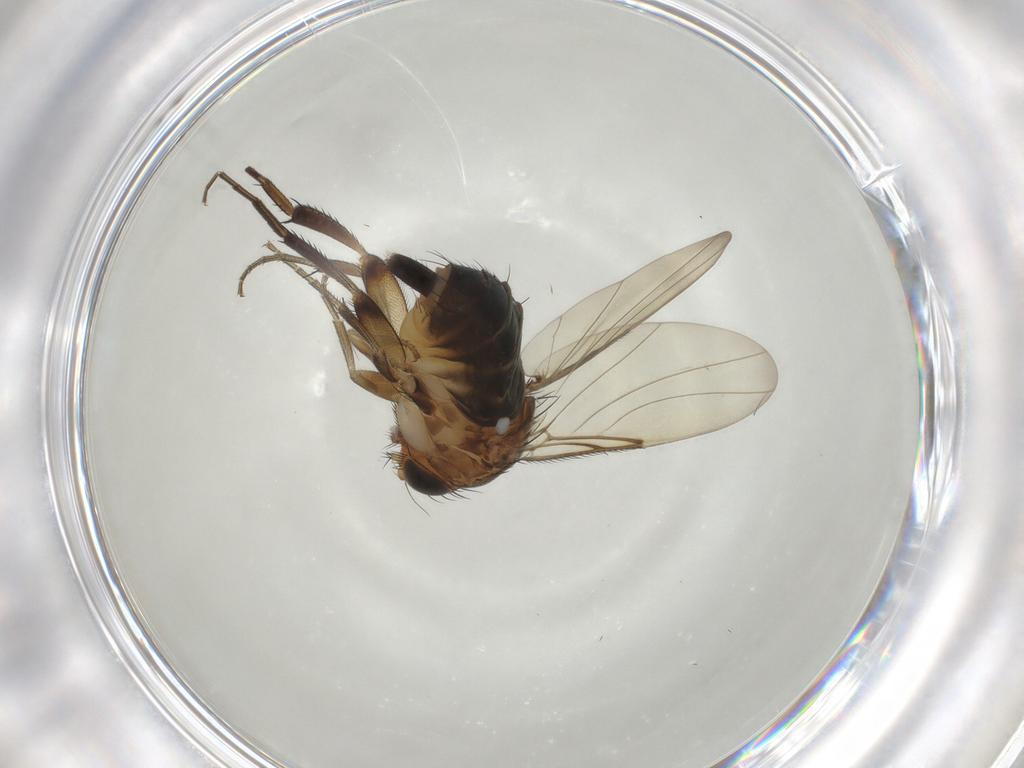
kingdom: Animalia
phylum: Arthropoda
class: Insecta
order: Diptera
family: Phoridae
